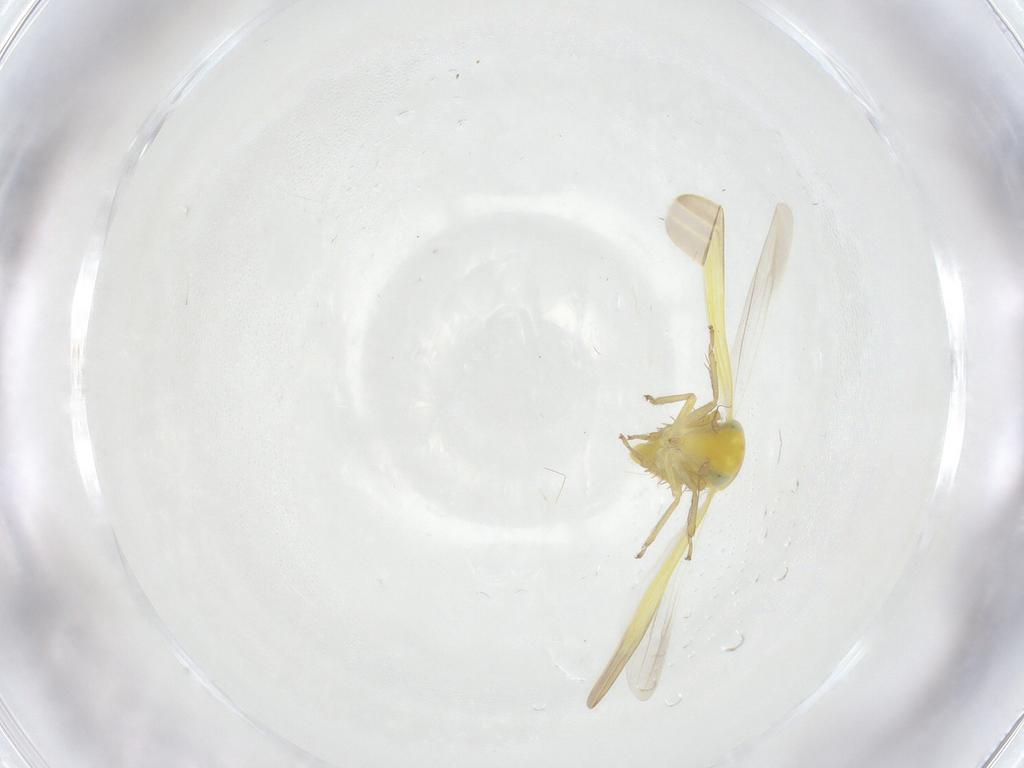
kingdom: Animalia
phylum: Arthropoda
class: Insecta
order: Hemiptera
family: Cicadellidae
